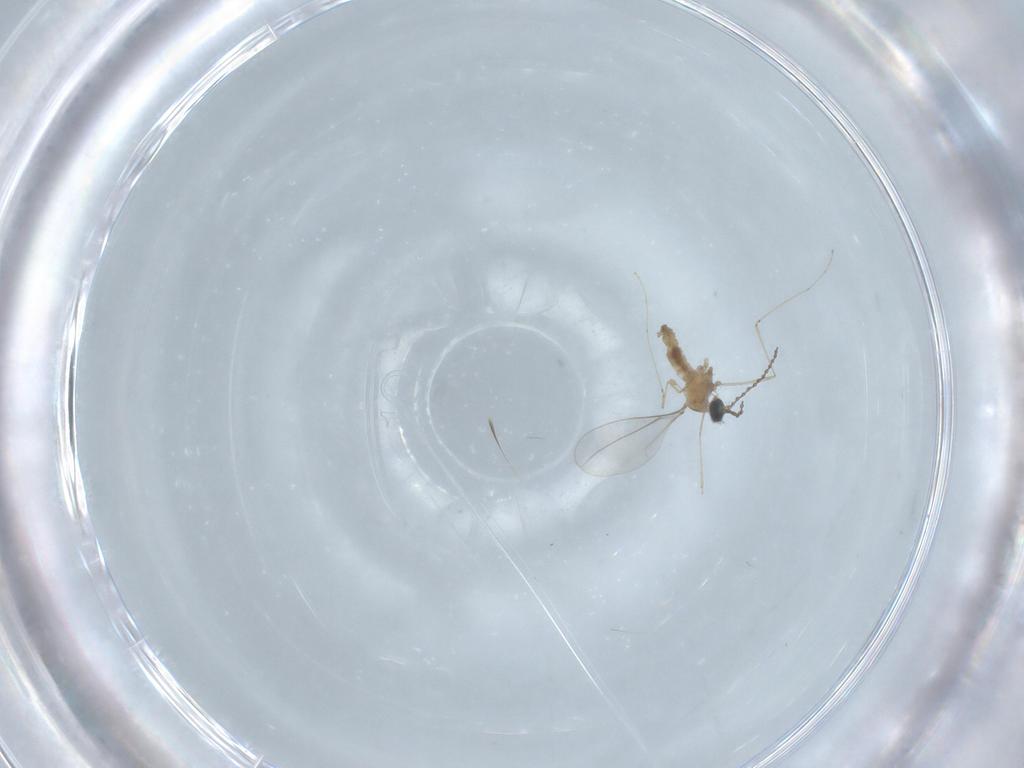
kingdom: Animalia
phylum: Arthropoda
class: Insecta
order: Diptera
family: Cecidomyiidae
